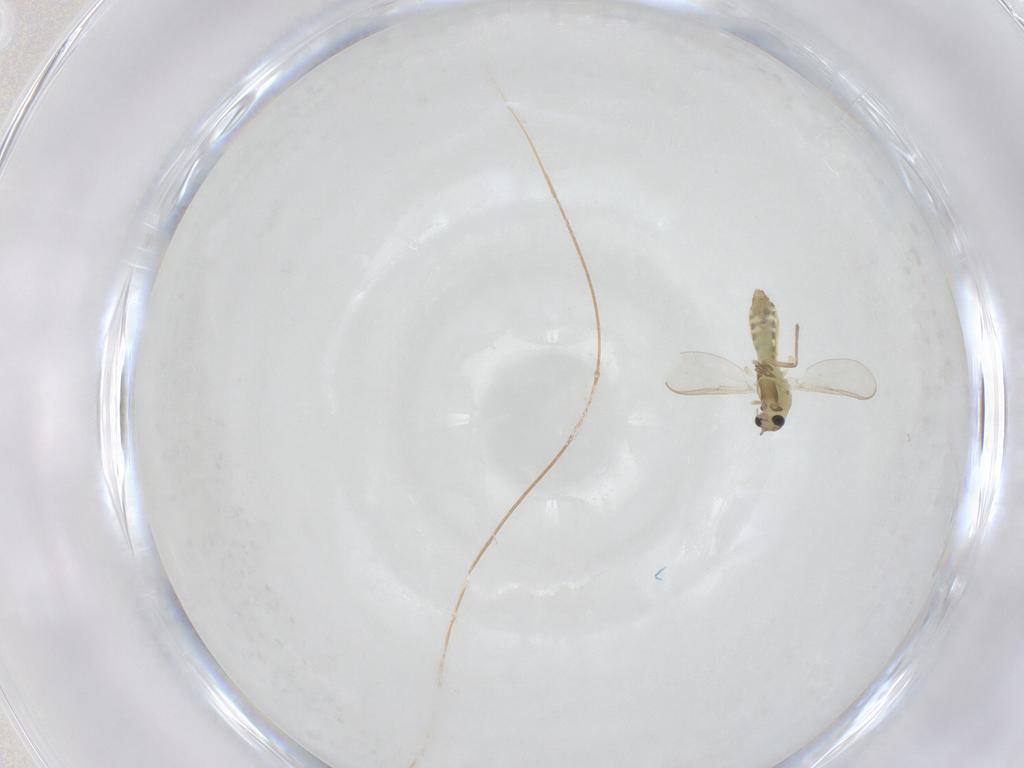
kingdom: Animalia
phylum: Arthropoda
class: Insecta
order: Diptera
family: Chironomidae
